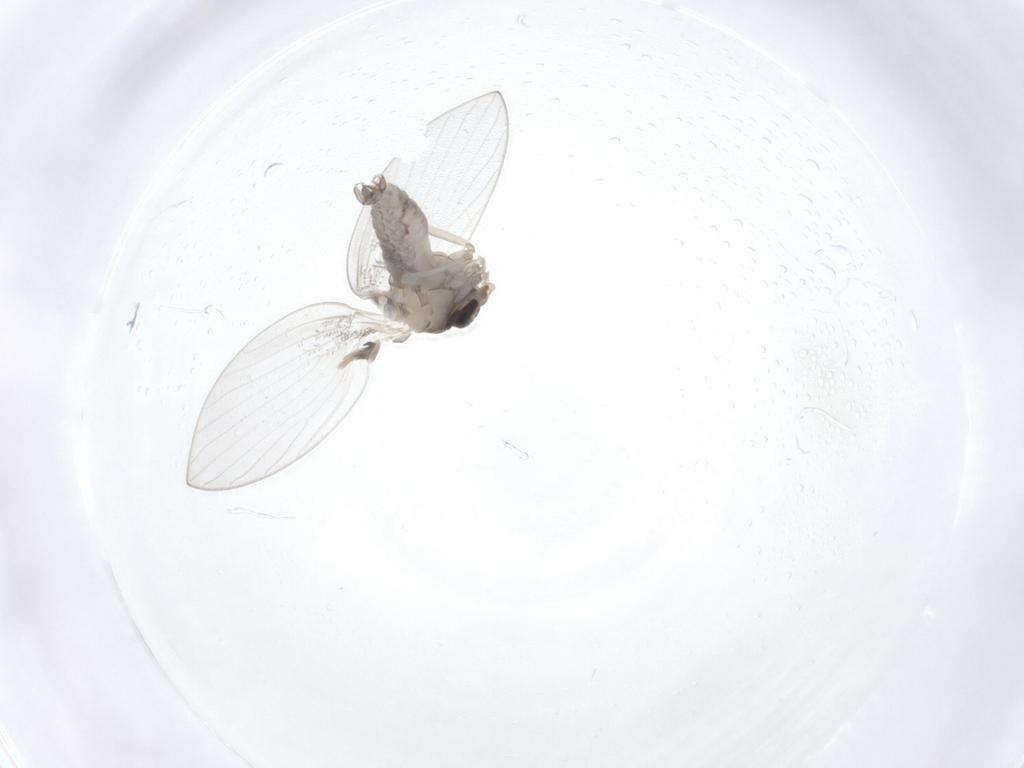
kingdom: Animalia
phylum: Arthropoda
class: Insecta
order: Diptera
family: Psychodidae
